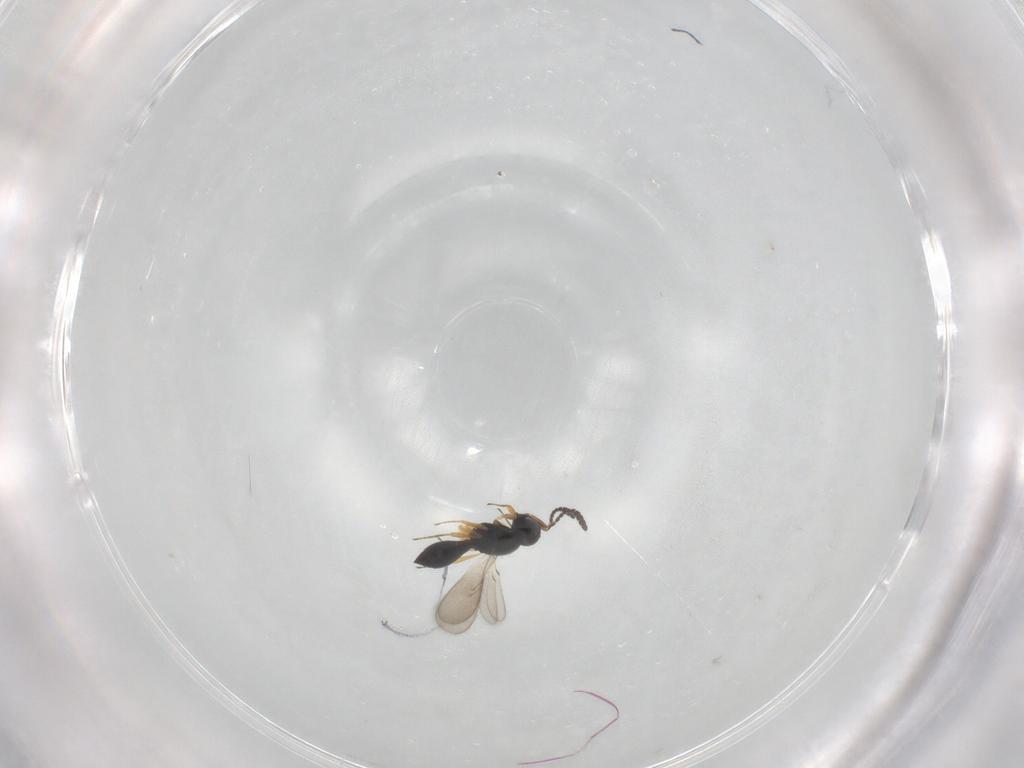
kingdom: Animalia
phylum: Arthropoda
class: Insecta
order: Hymenoptera
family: Scelionidae
